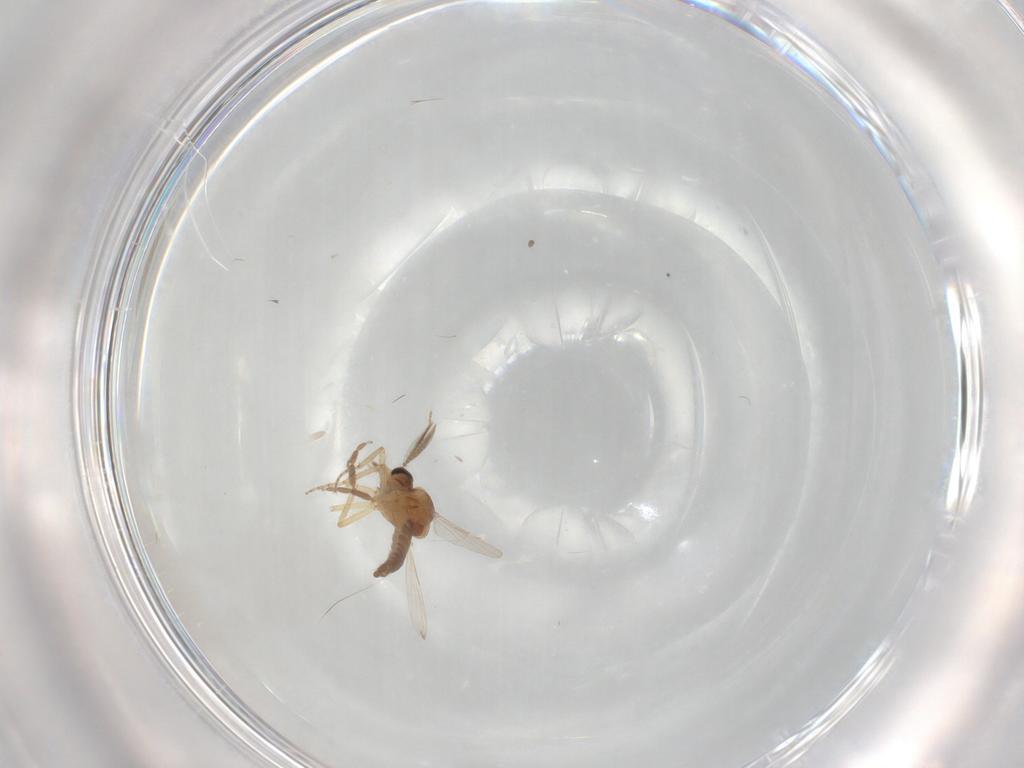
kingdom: Animalia
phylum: Arthropoda
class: Insecta
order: Diptera
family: Ceratopogonidae
